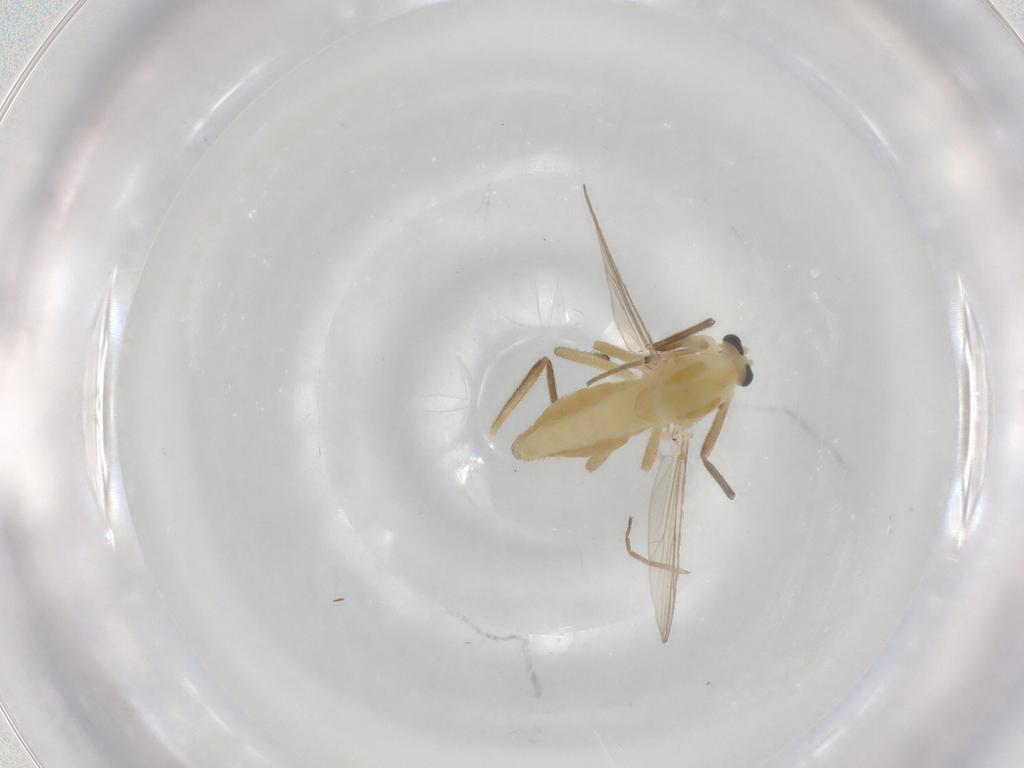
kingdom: Animalia
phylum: Arthropoda
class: Insecta
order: Diptera
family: Chironomidae
